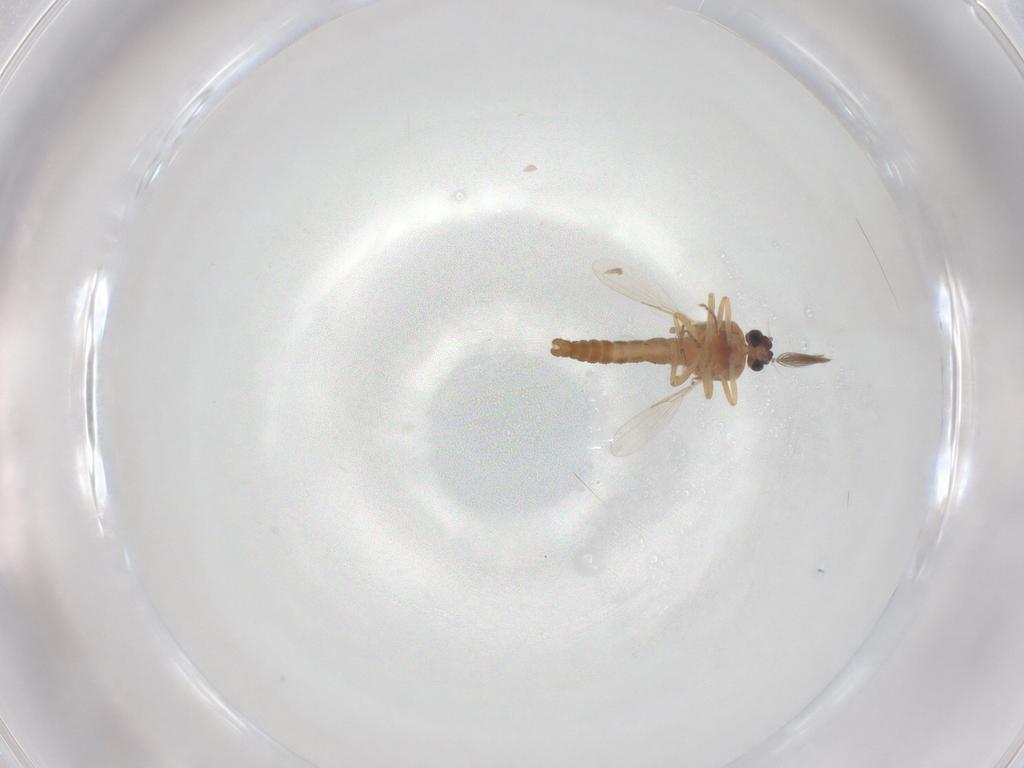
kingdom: Animalia
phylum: Arthropoda
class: Insecta
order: Diptera
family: Ceratopogonidae
